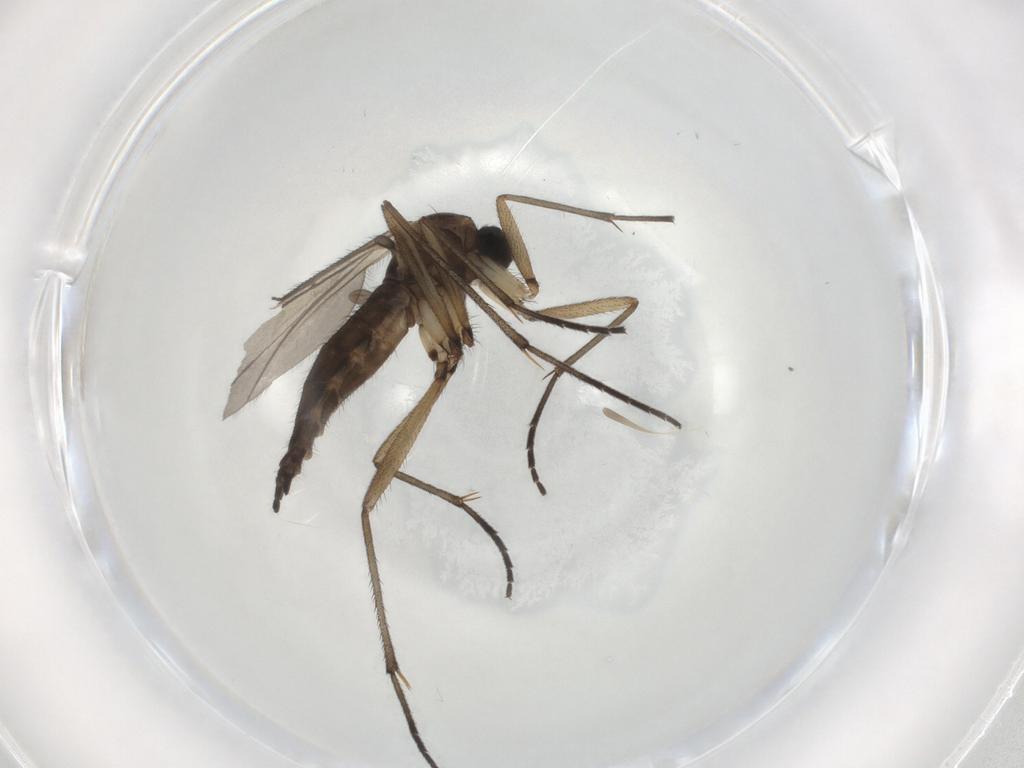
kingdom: Animalia
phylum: Arthropoda
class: Insecta
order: Diptera
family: Sciaridae
